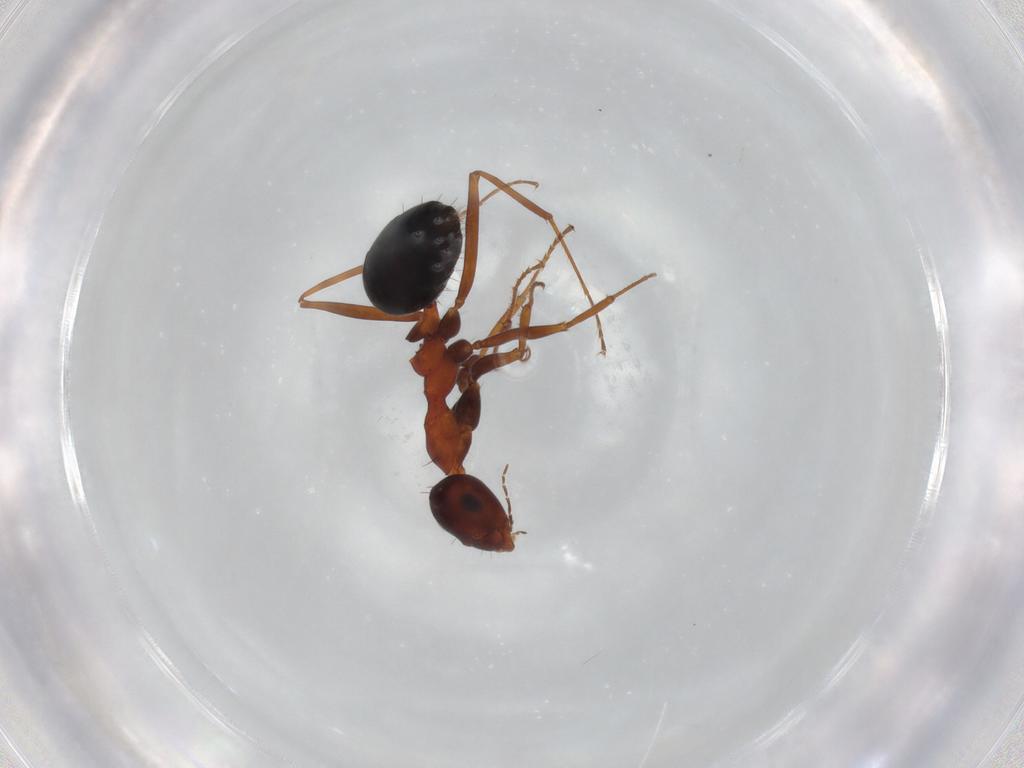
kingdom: Animalia
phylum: Arthropoda
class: Insecta
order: Hymenoptera
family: Formicidae
